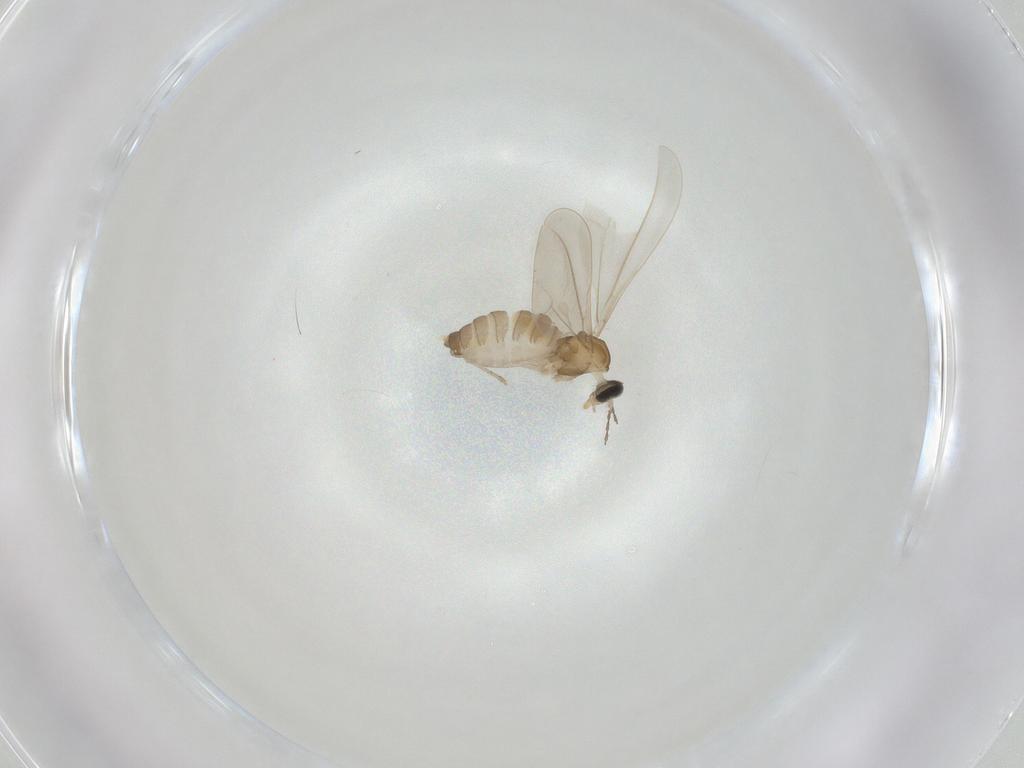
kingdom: Animalia
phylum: Arthropoda
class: Insecta
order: Diptera
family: Cecidomyiidae
